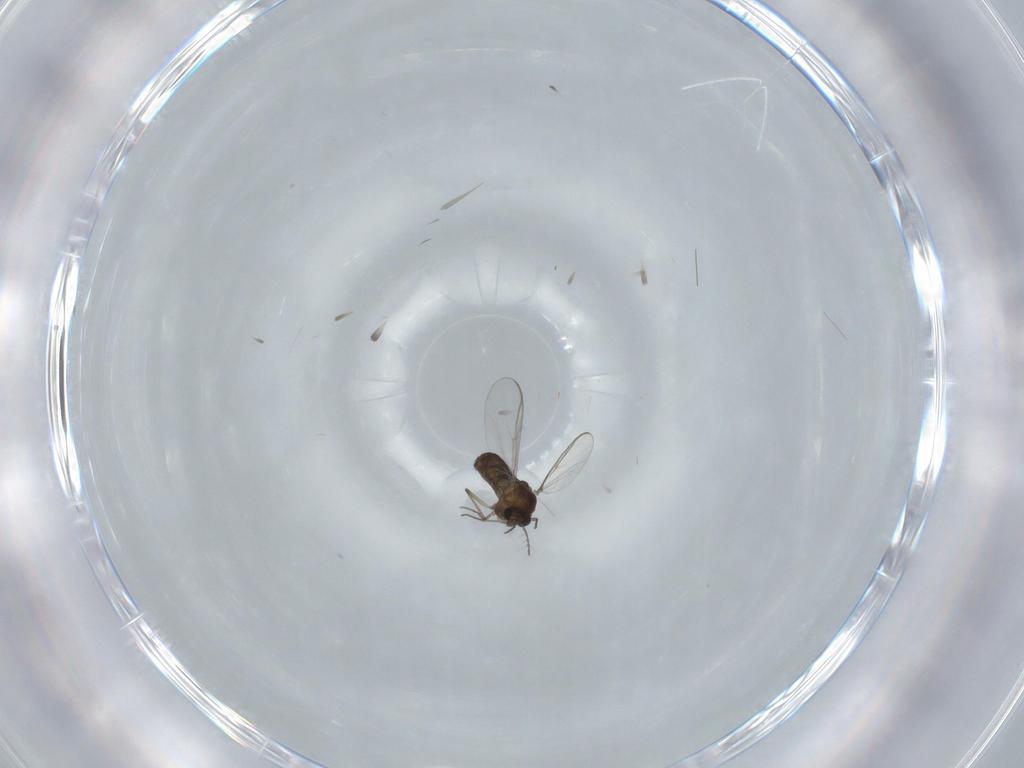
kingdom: Animalia
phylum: Arthropoda
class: Insecta
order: Diptera
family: Chironomidae
